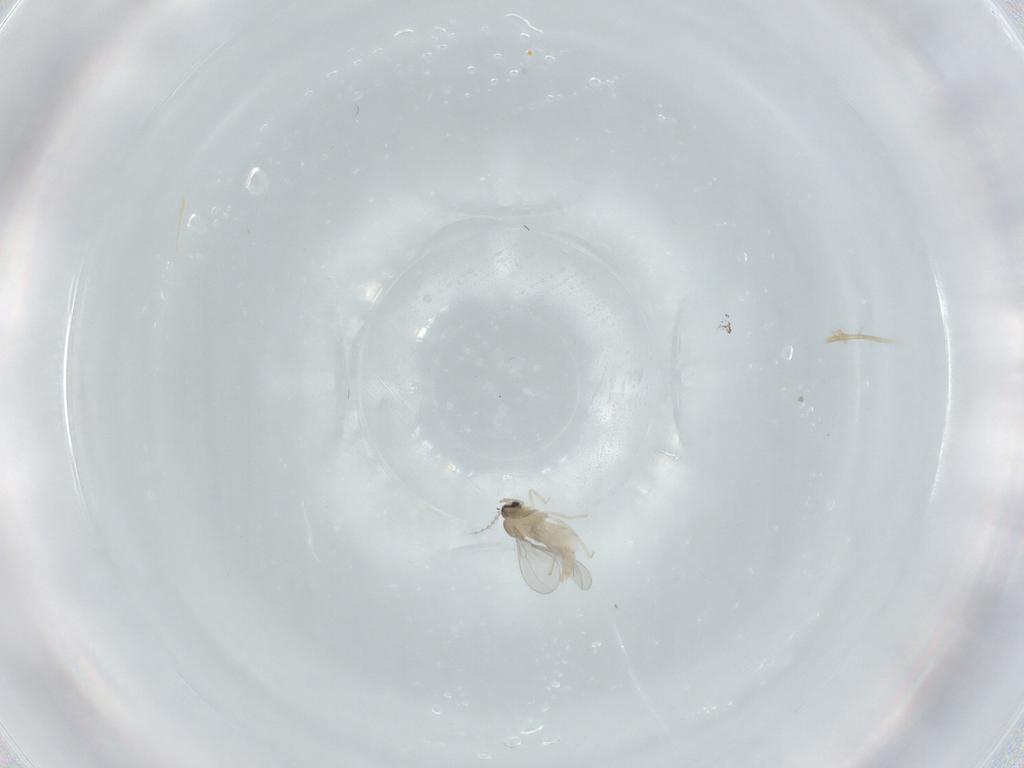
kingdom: Animalia
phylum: Arthropoda
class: Insecta
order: Diptera
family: Cecidomyiidae
